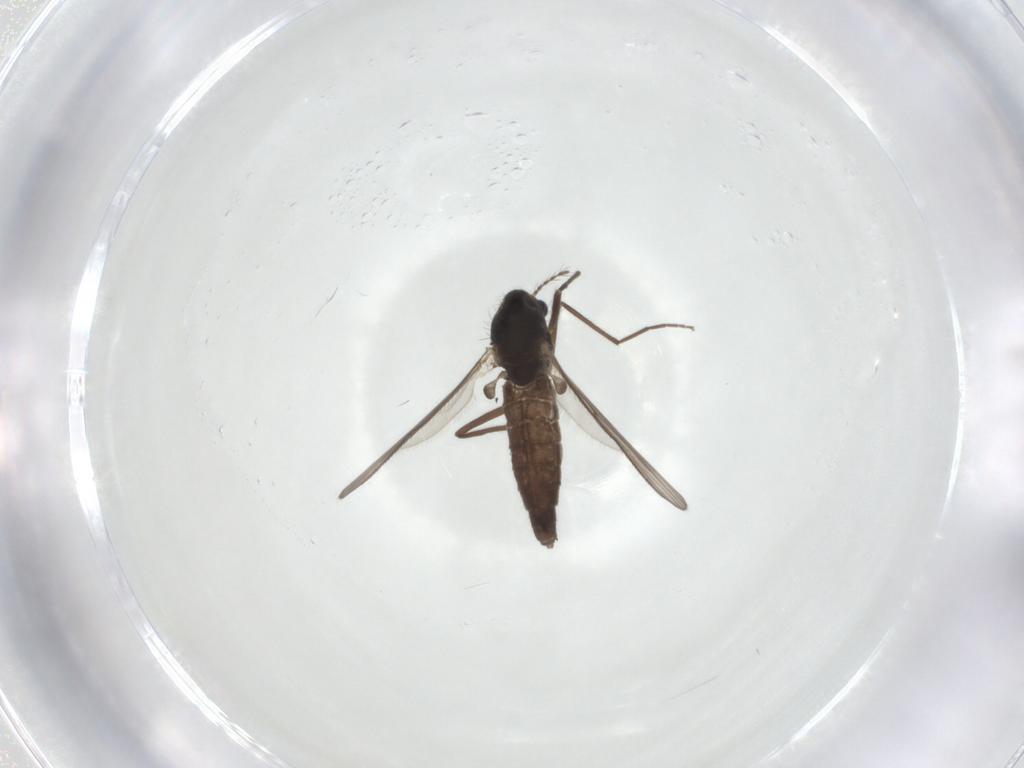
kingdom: Animalia
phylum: Arthropoda
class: Insecta
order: Diptera
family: Chironomidae
